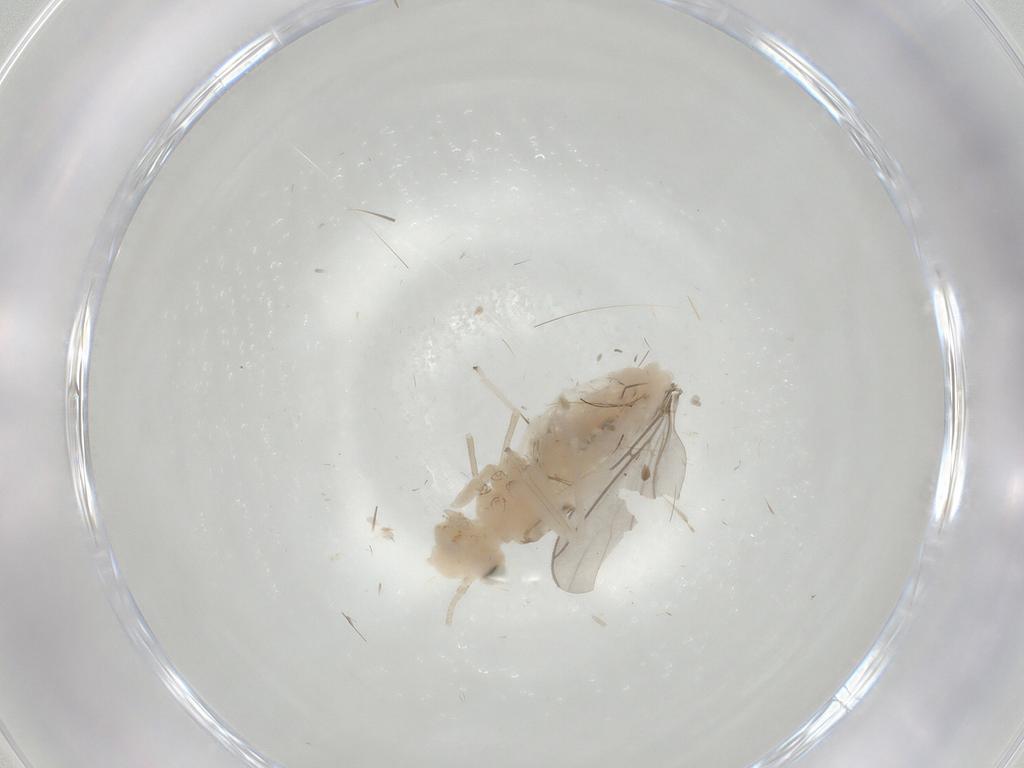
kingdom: Animalia
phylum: Arthropoda
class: Insecta
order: Psocodea
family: Caeciliusidae
